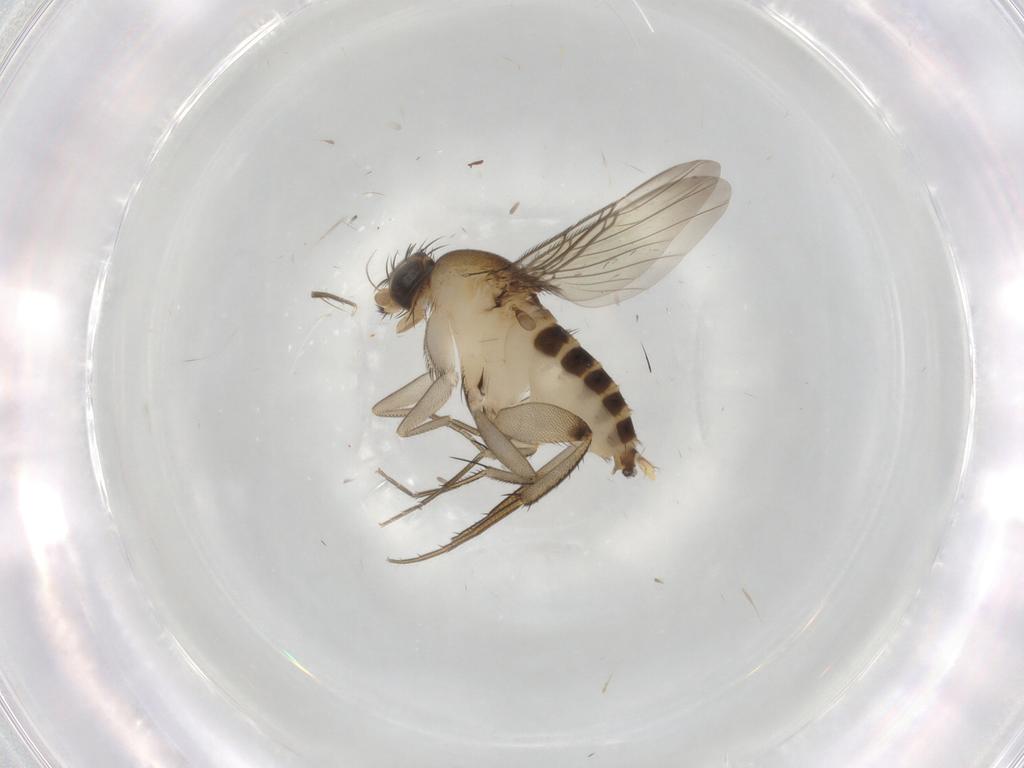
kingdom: Animalia
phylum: Arthropoda
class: Insecta
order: Diptera
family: Phoridae
